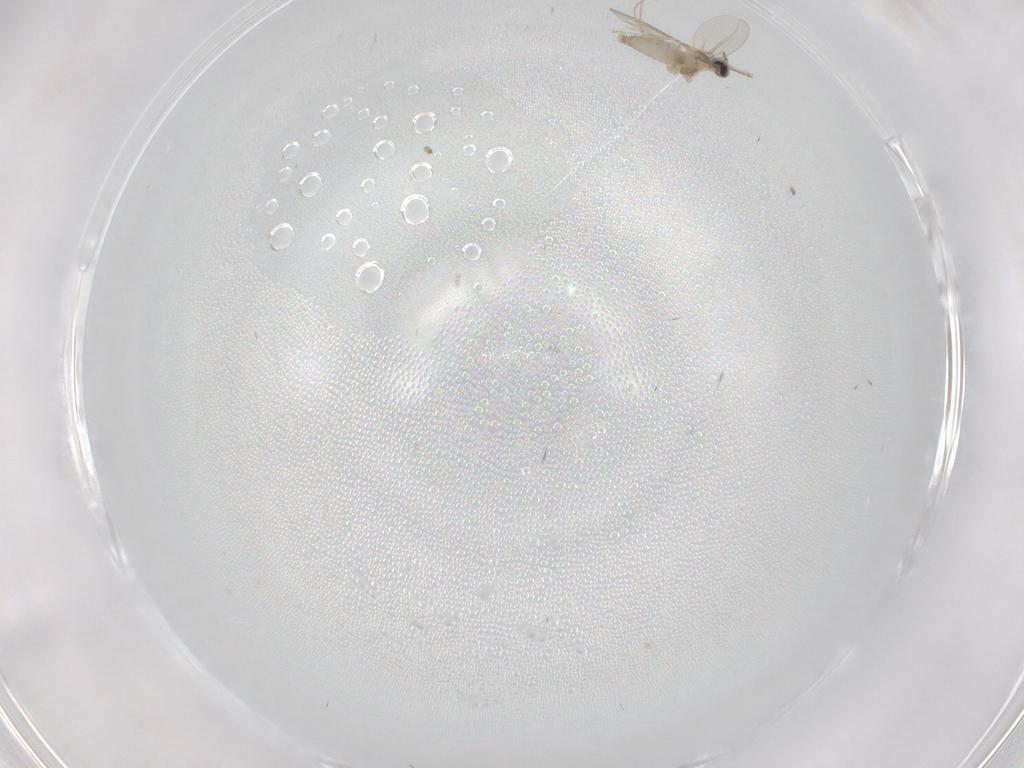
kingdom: Animalia
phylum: Arthropoda
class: Insecta
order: Diptera
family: Cecidomyiidae
